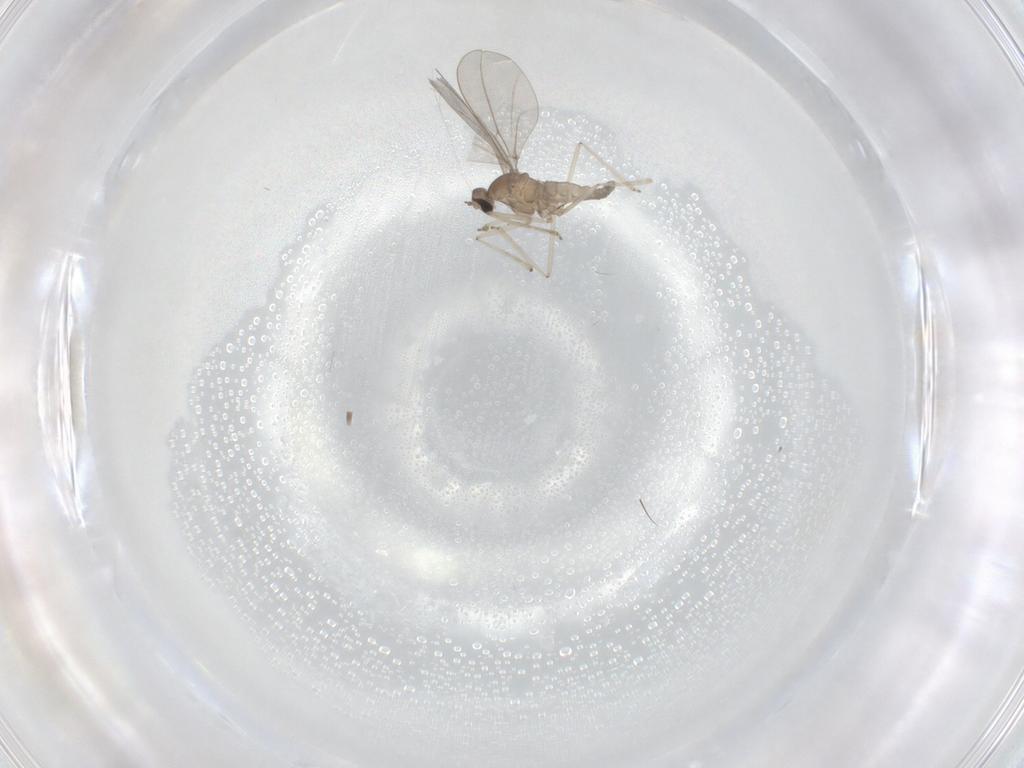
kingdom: Animalia
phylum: Arthropoda
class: Insecta
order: Diptera
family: Cecidomyiidae
